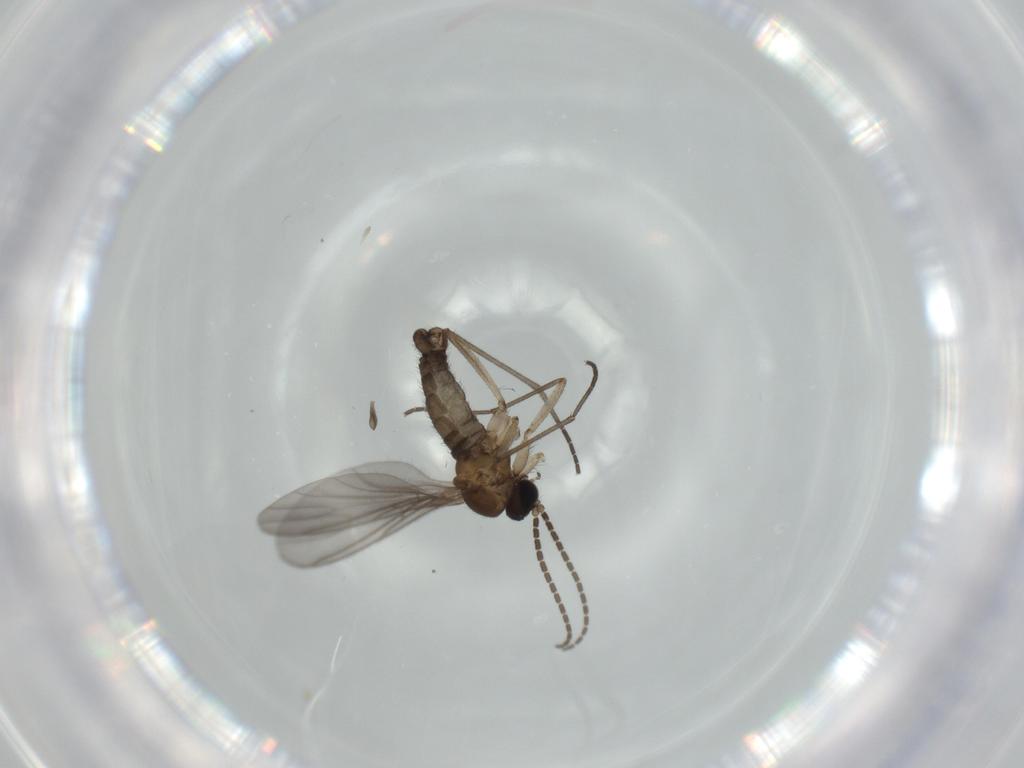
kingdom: Animalia
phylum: Arthropoda
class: Insecta
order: Diptera
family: Sciaridae
